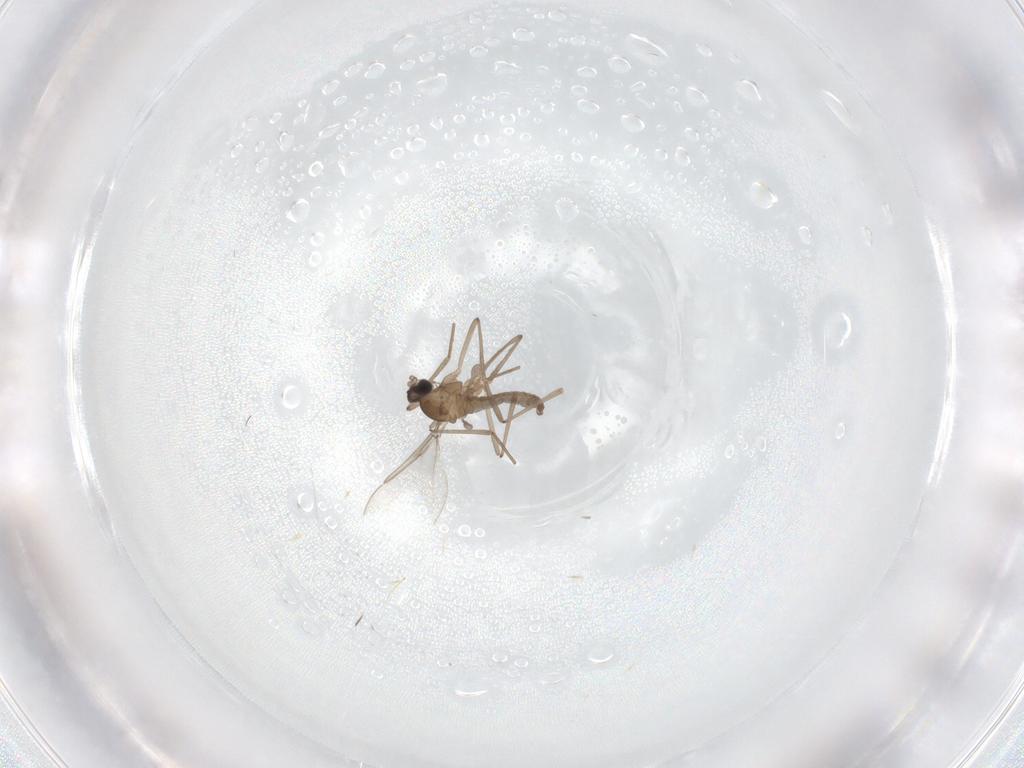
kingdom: Animalia
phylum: Arthropoda
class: Insecta
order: Diptera
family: Cecidomyiidae
